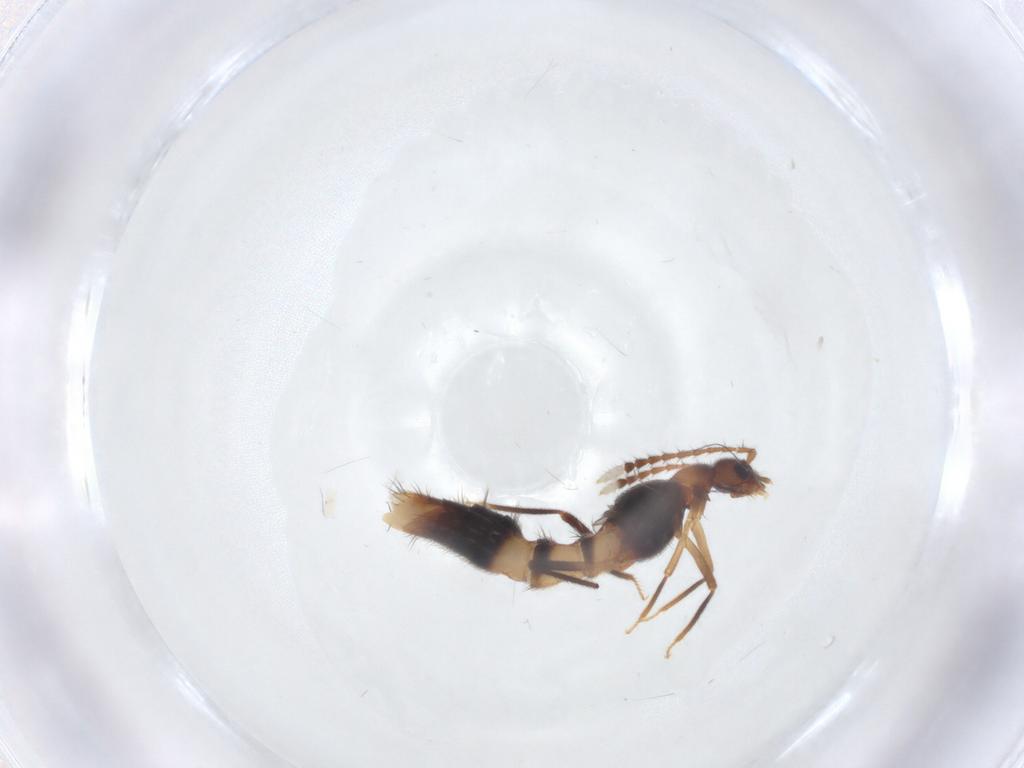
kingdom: Animalia
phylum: Arthropoda
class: Insecta
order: Coleoptera
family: Staphylinidae
